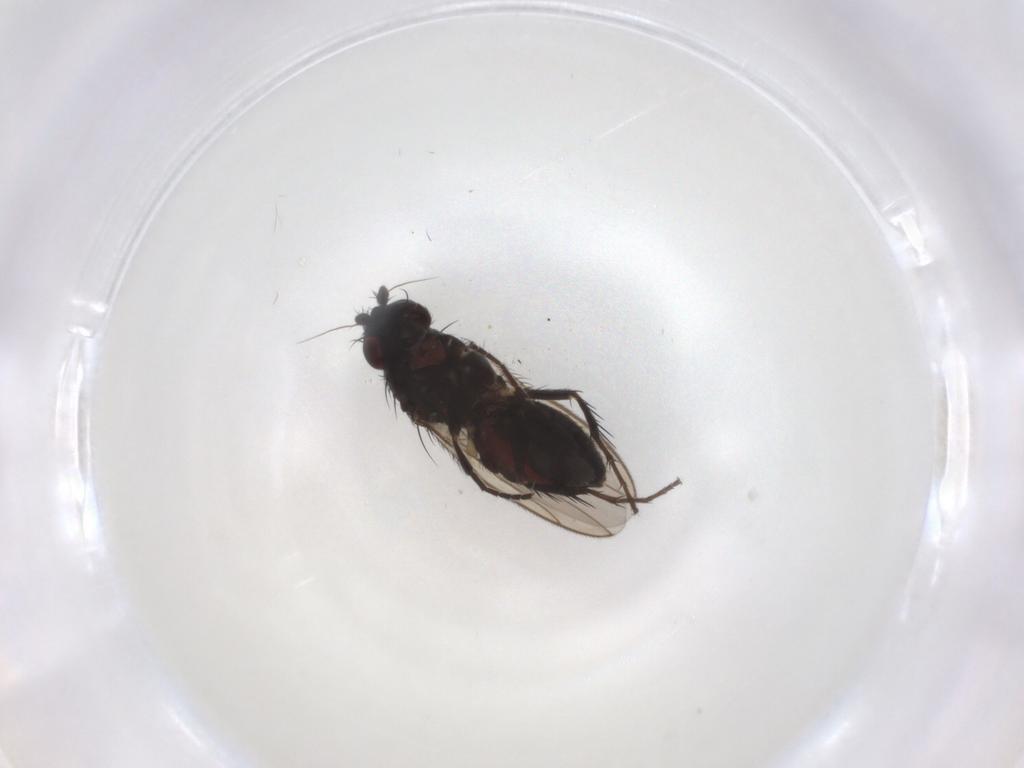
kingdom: Animalia
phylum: Arthropoda
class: Insecta
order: Diptera
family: Sphaeroceridae
